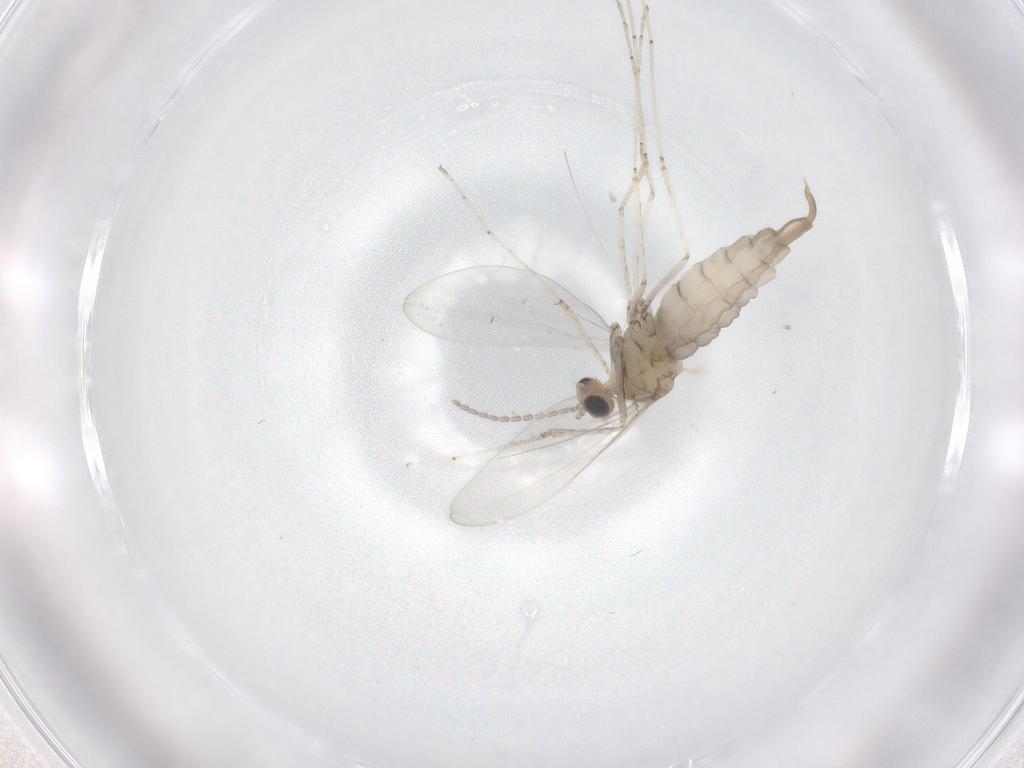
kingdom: Animalia
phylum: Arthropoda
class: Insecta
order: Diptera
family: Cecidomyiidae
